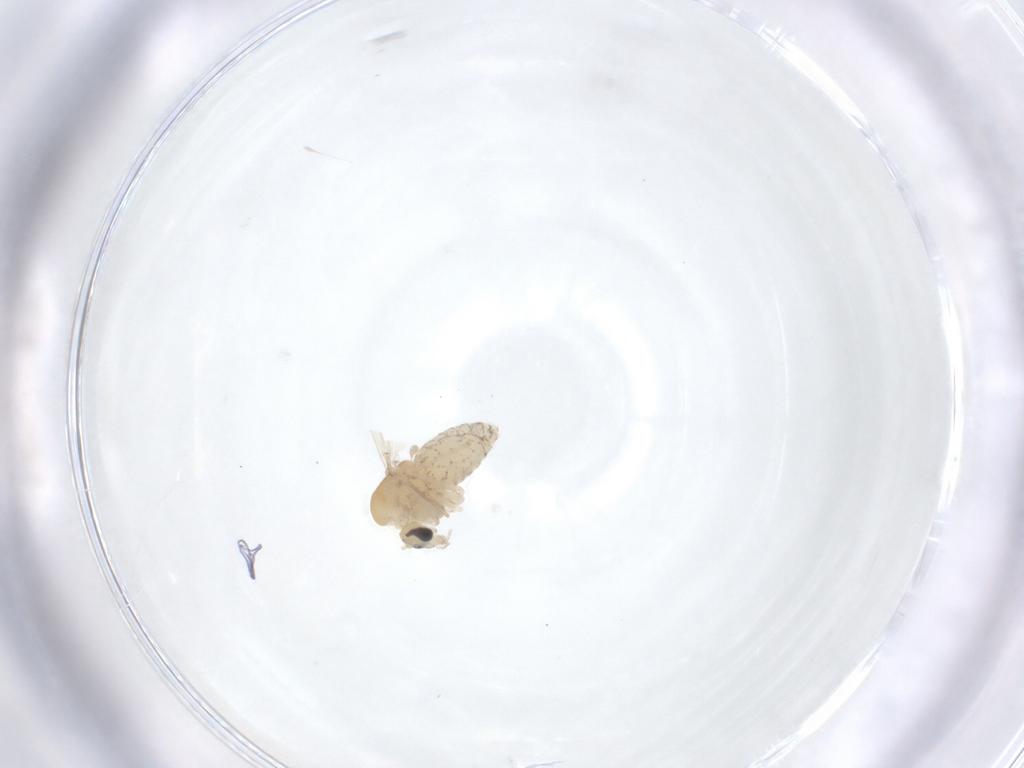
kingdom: Animalia
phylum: Arthropoda
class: Insecta
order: Diptera
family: Chironomidae
